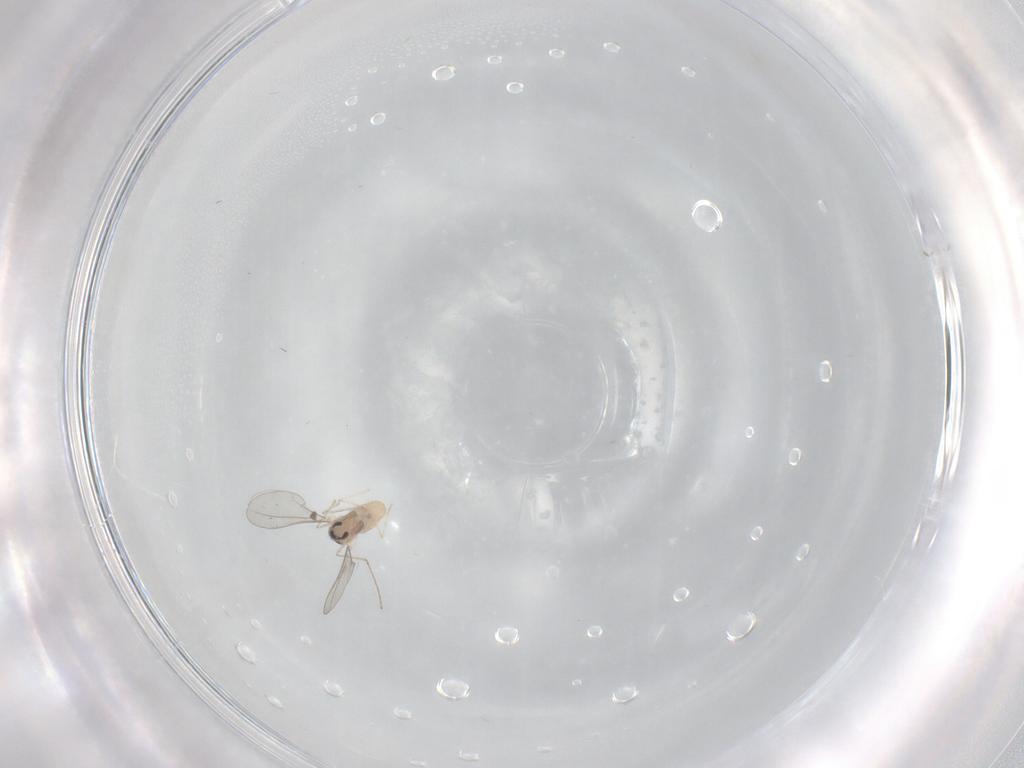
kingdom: Animalia
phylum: Arthropoda
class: Insecta
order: Diptera
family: Cecidomyiidae
